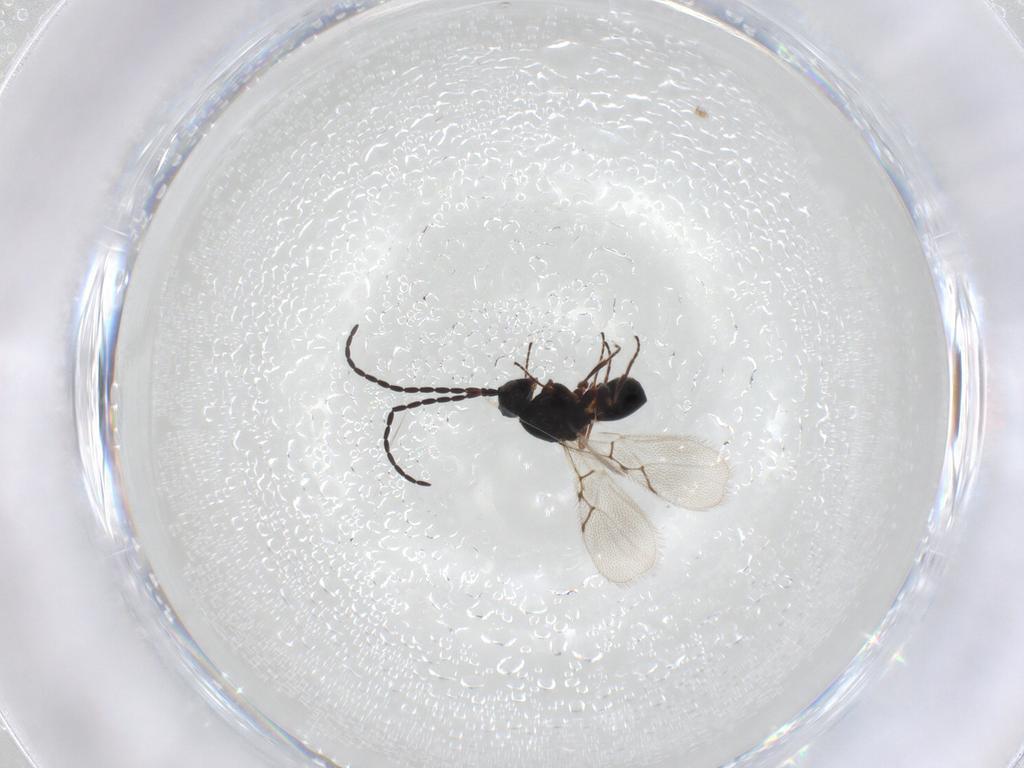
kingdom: Animalia
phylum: Arthropoda
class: Insecta
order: Hymenoptera
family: Figitidae
